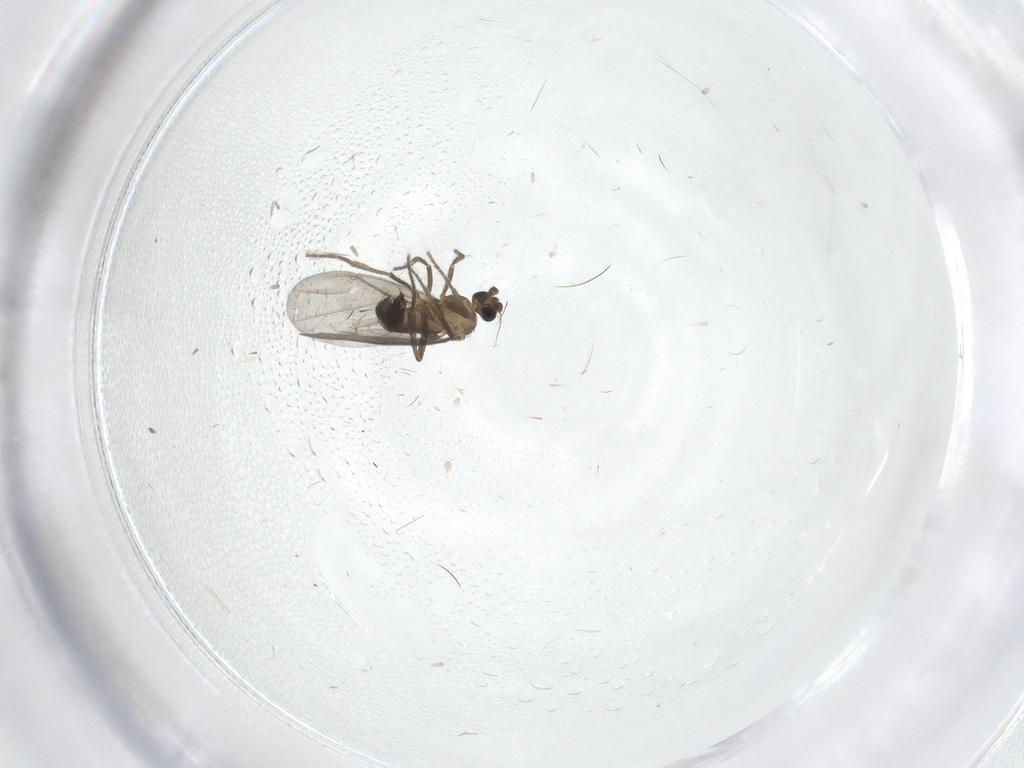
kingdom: Animalia
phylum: Arthropoda
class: Insecta
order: Diptera
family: Phoridae
